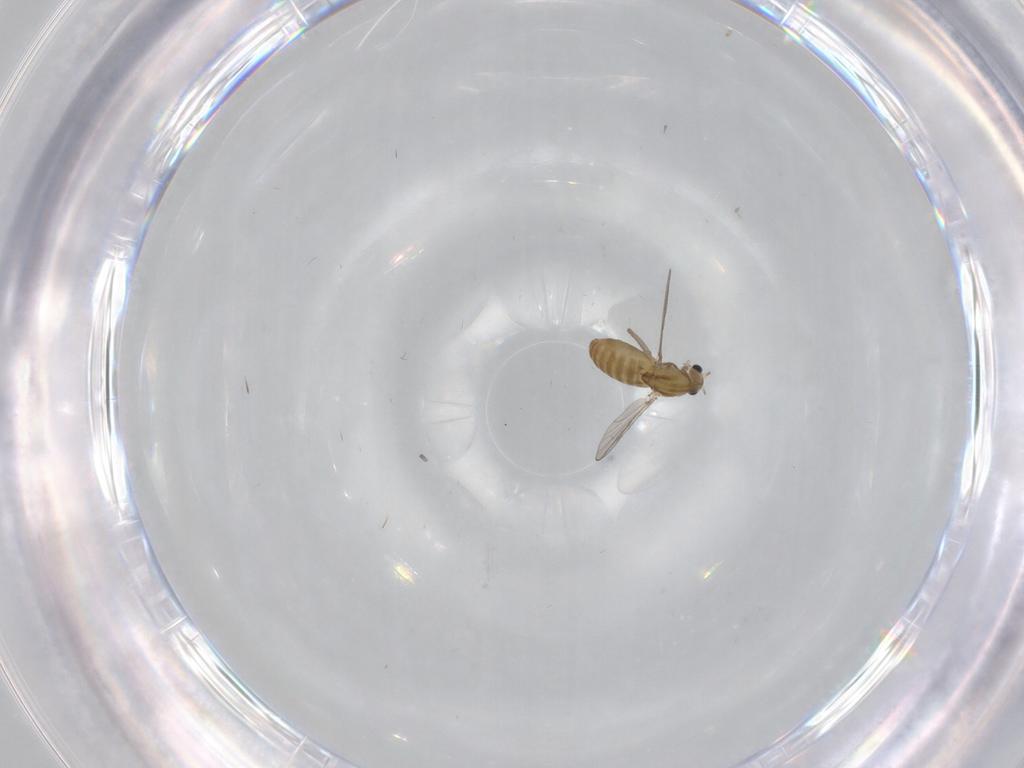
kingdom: Animalia
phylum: Arthropoda
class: Insecta
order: Diptera
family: Chironomidae
